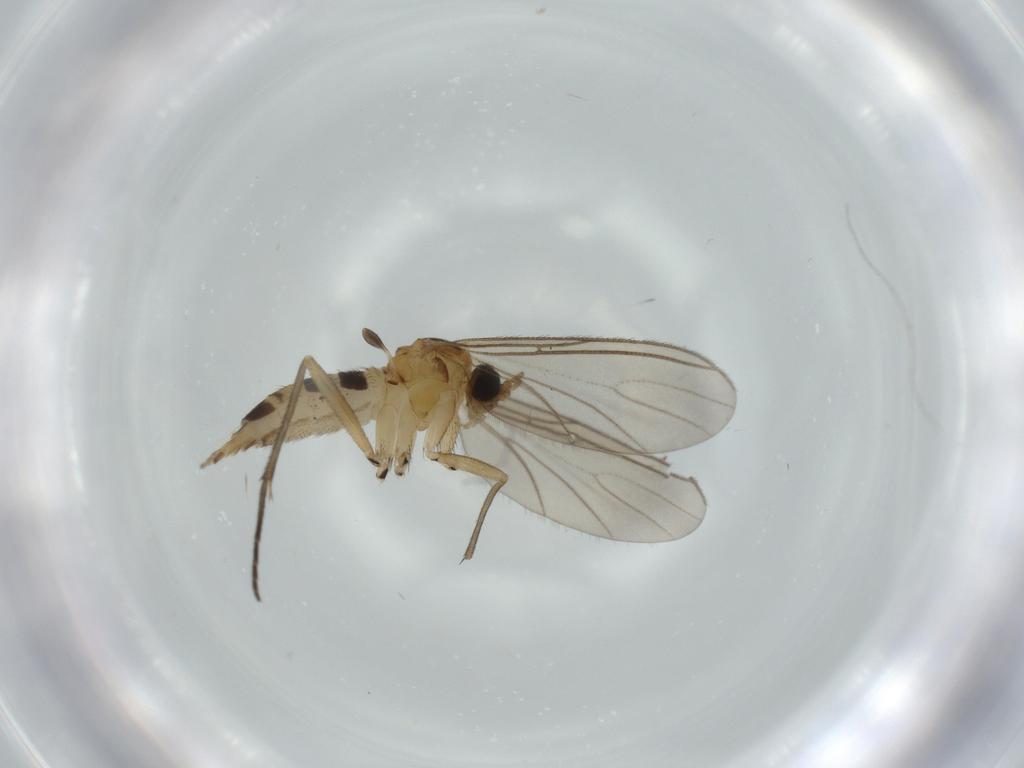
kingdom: Animalia
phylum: Arthropoda
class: Insecta
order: Diptera
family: Sciaridae
